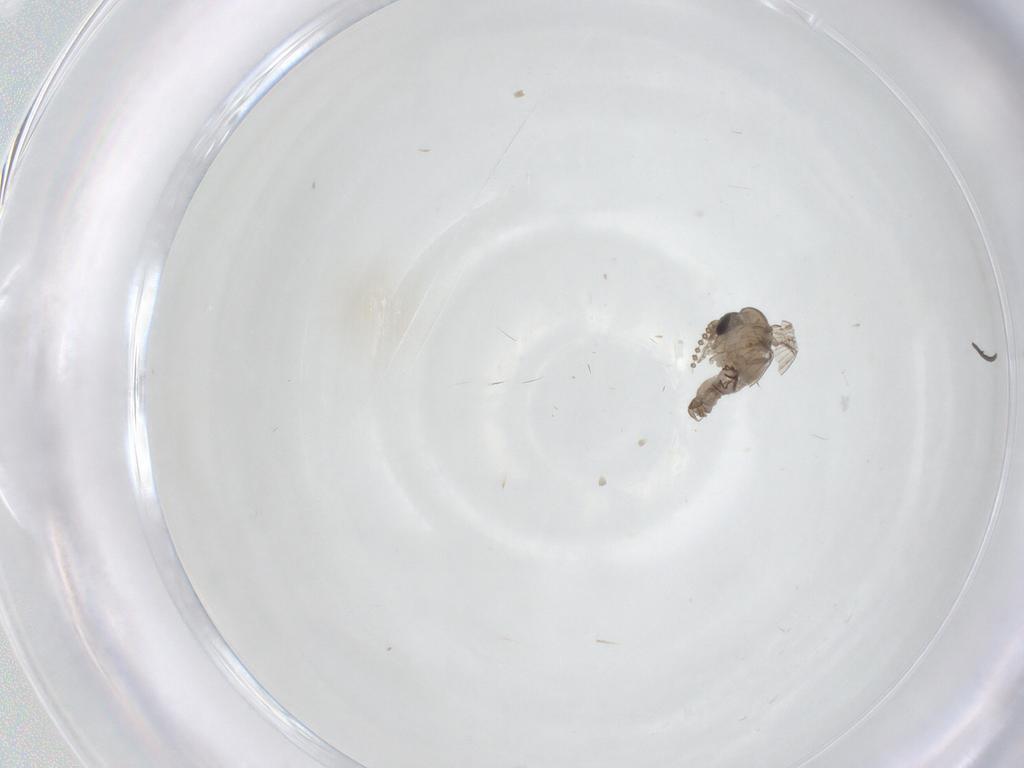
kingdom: Animalia
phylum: Arthropoda
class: Insecta
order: Diptera
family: Psychodidae
